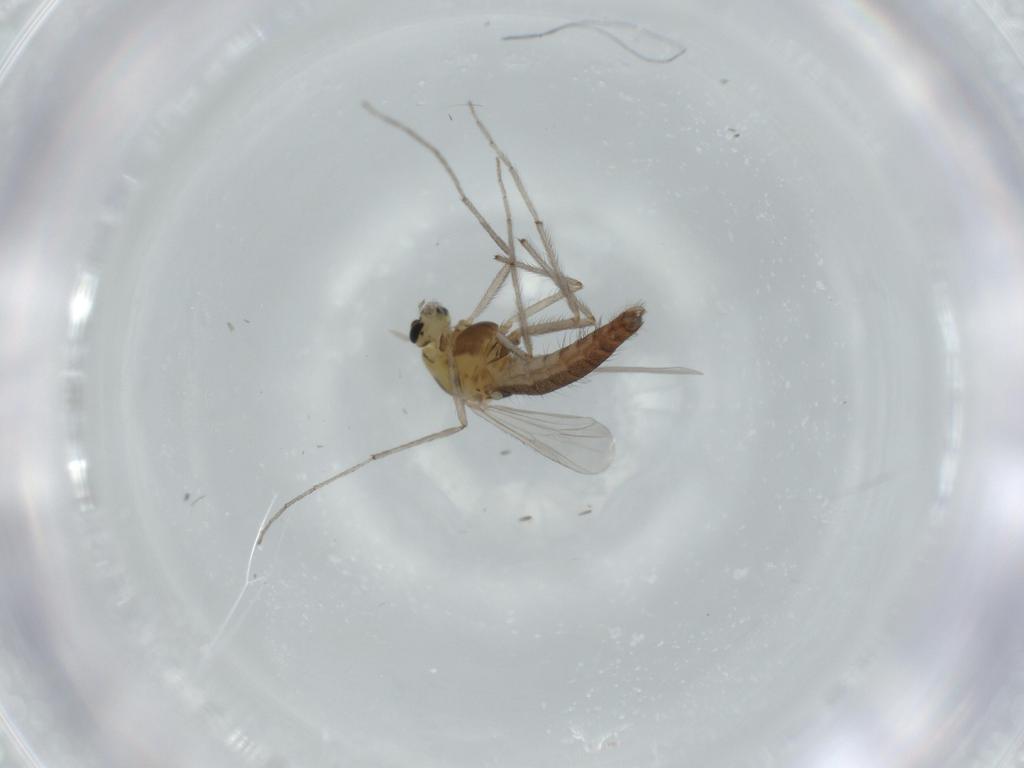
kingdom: Animalia
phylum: Arthropoda
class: Insecta
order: Diptera
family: Chironomidae
